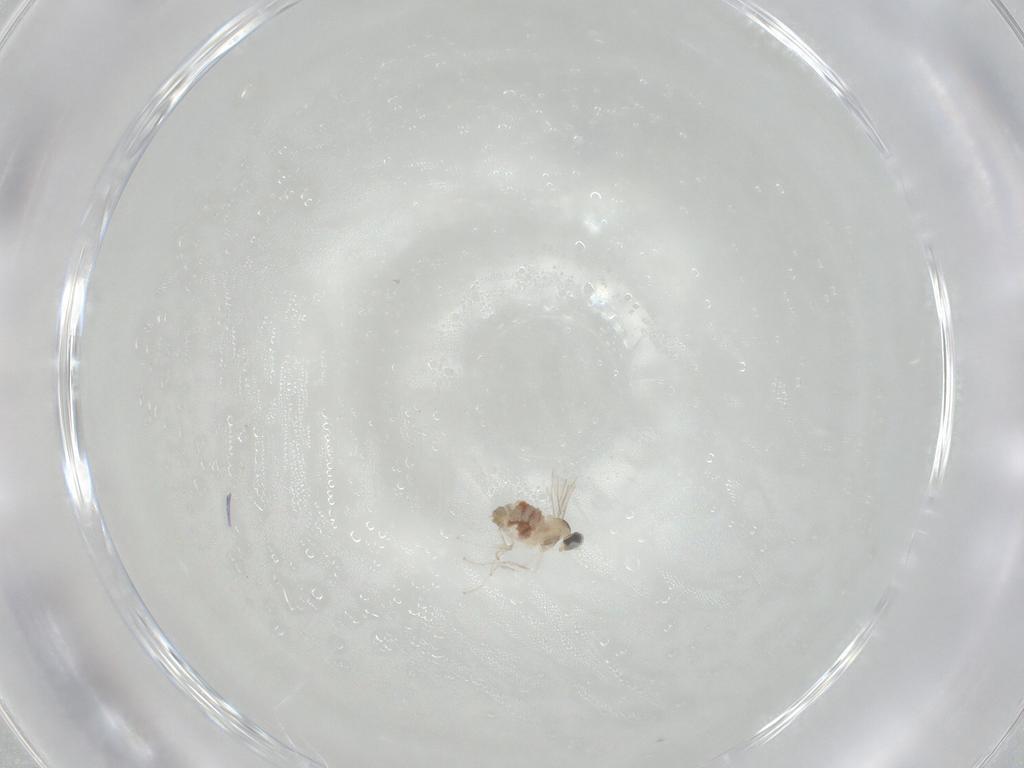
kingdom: Animalia
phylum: Arthropoda
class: Insecta
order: Diptera
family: Cecidomyiidae
